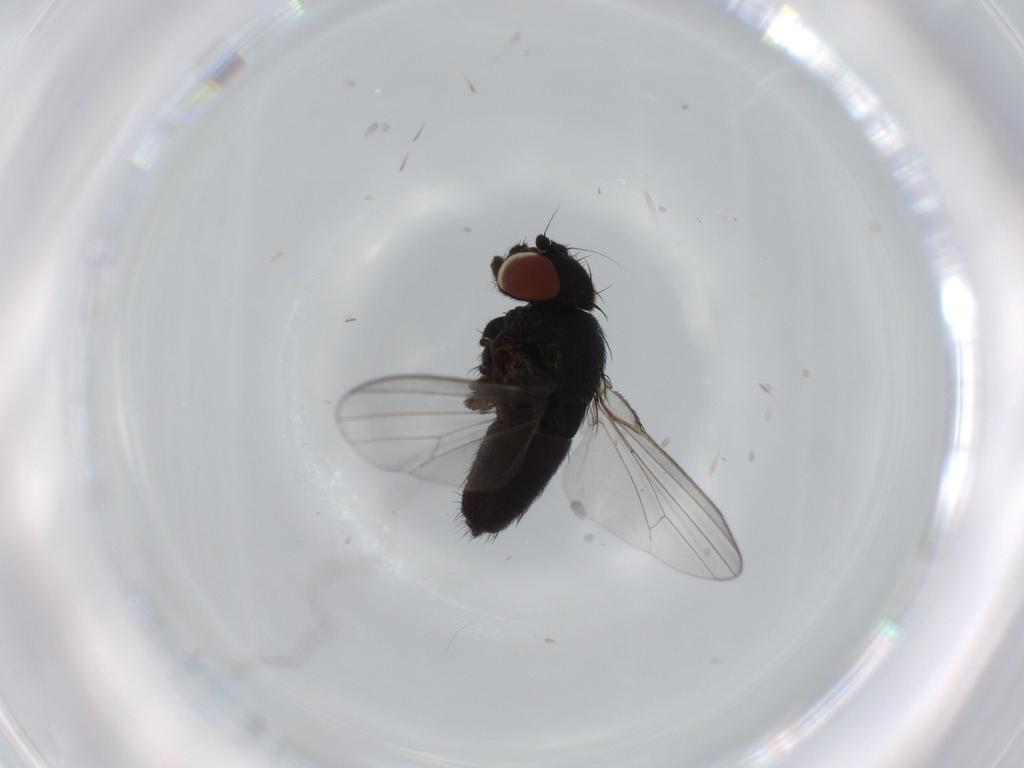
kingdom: Animalia
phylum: Arthropoda
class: Insecta
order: Diptera
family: Milichiidae
